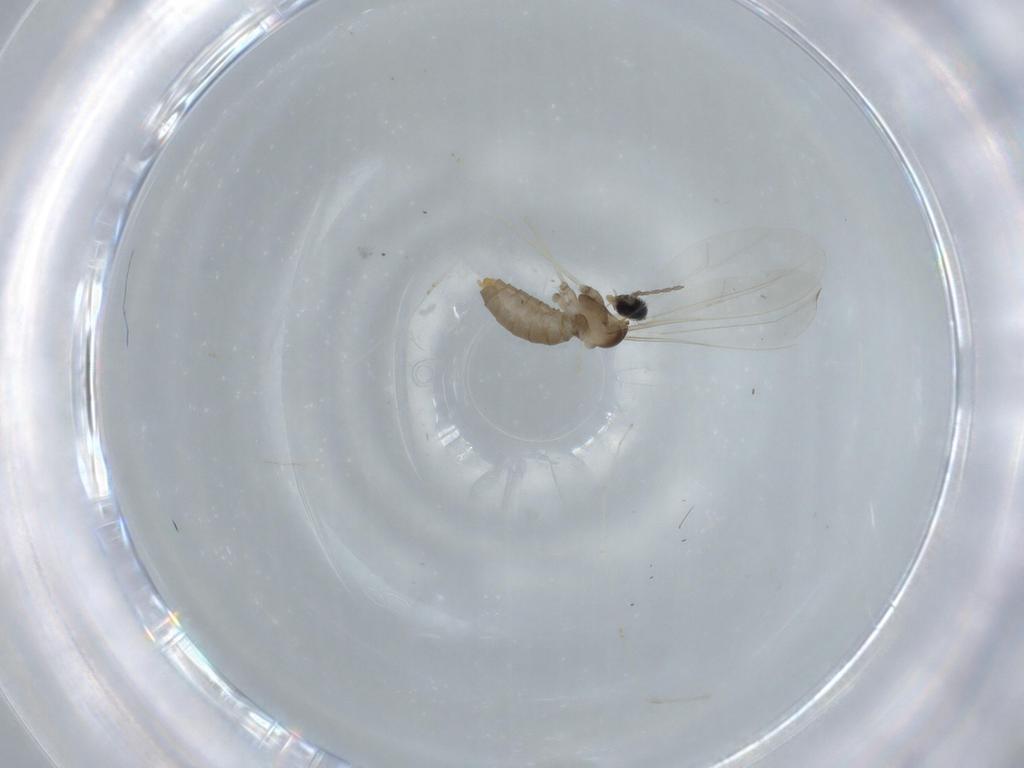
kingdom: Animalia
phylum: Arthropoda
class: Insecta
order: Diptera
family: Cecidomyiidae
